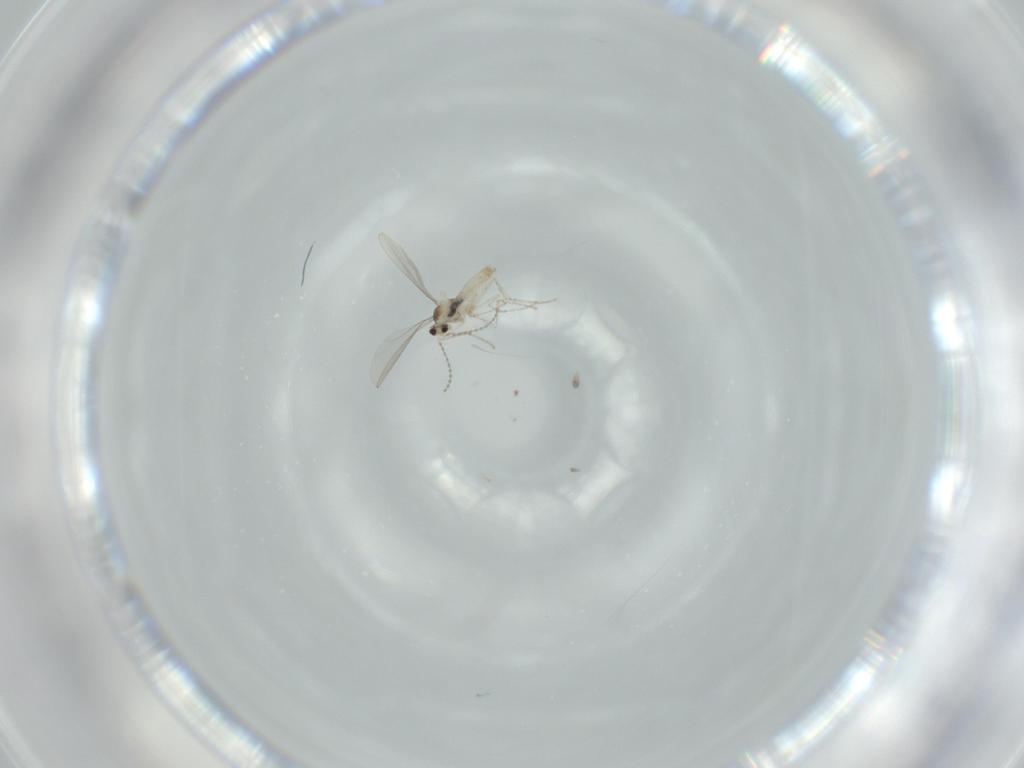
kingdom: Animalia
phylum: Arthropoda
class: Insecta
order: Diptera
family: Cecidomyiidae
